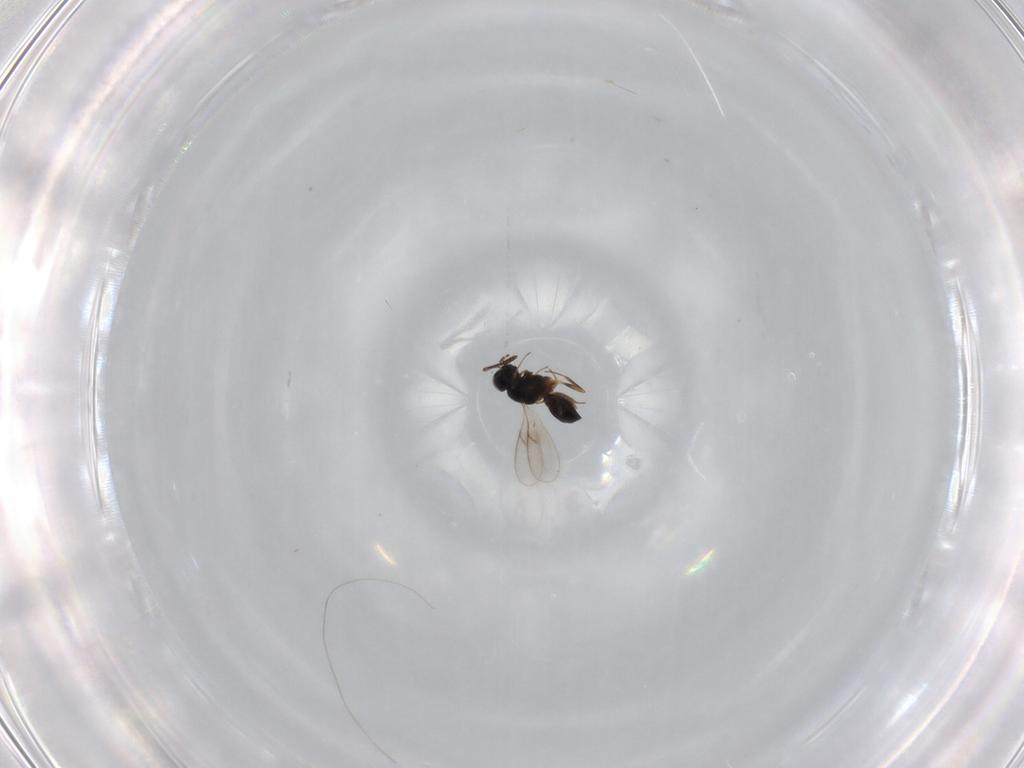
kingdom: Animalia
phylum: Arthropoda
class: Insecta
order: Hymenoptera
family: Scelionidae
